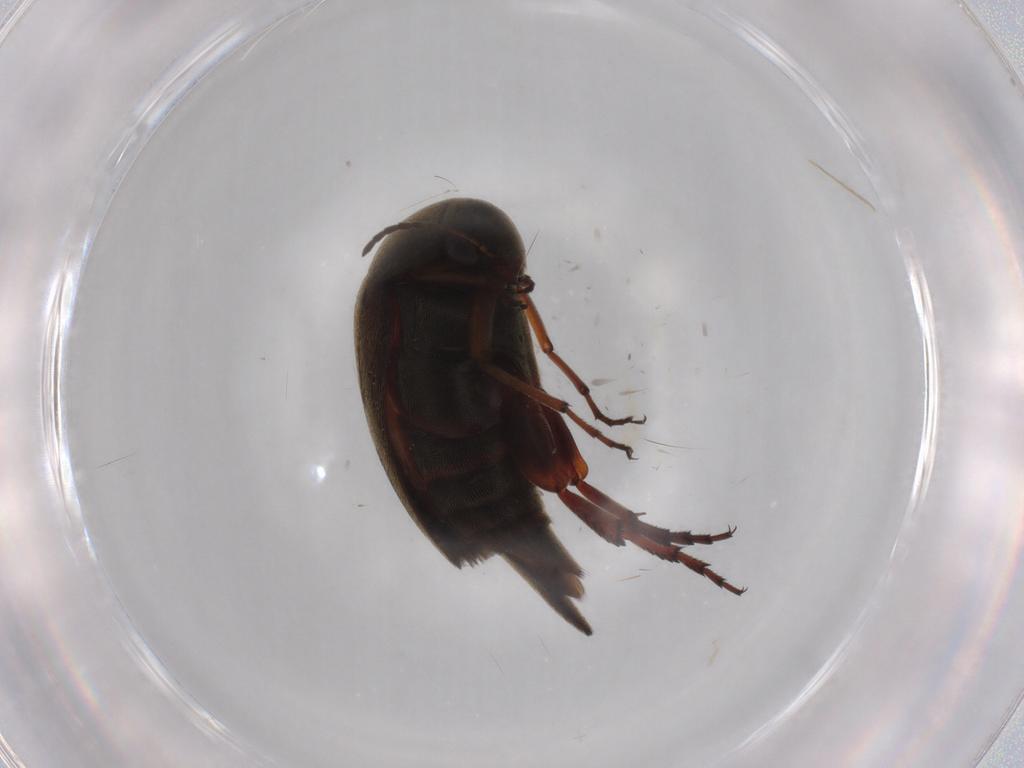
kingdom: Animalia
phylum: Arthropoda
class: Insecta
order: Coleoptera
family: Mordellidae
